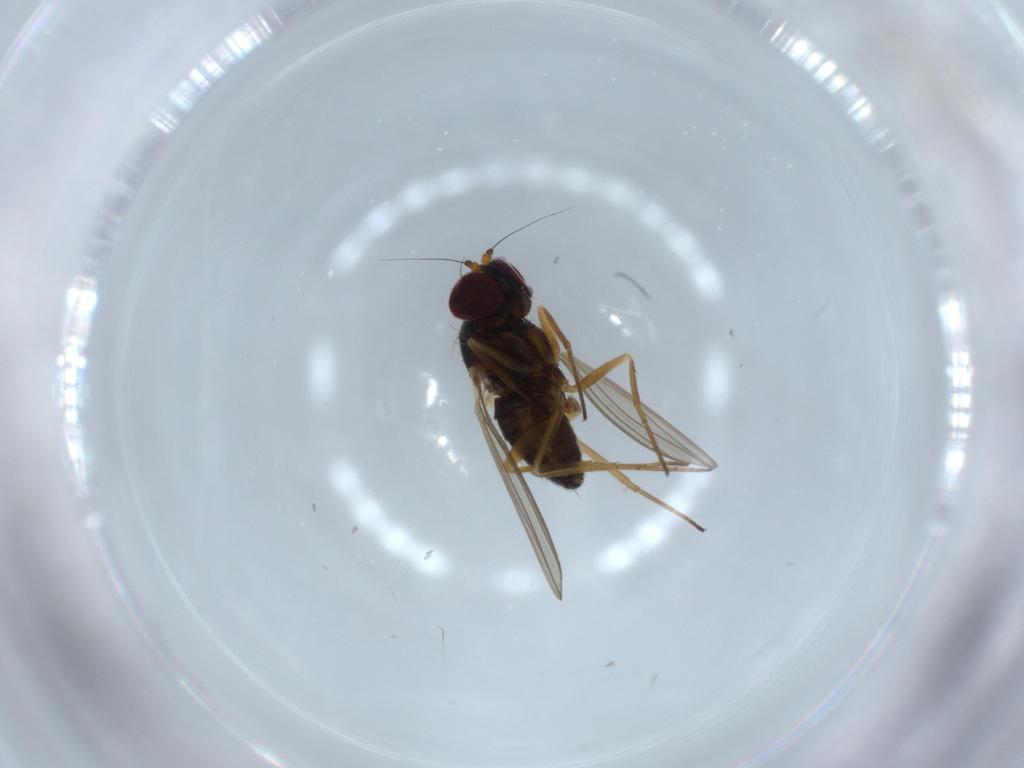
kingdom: Animalia
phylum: Arthropoda
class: Insecta
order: Diptera
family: Dolichopodidae
